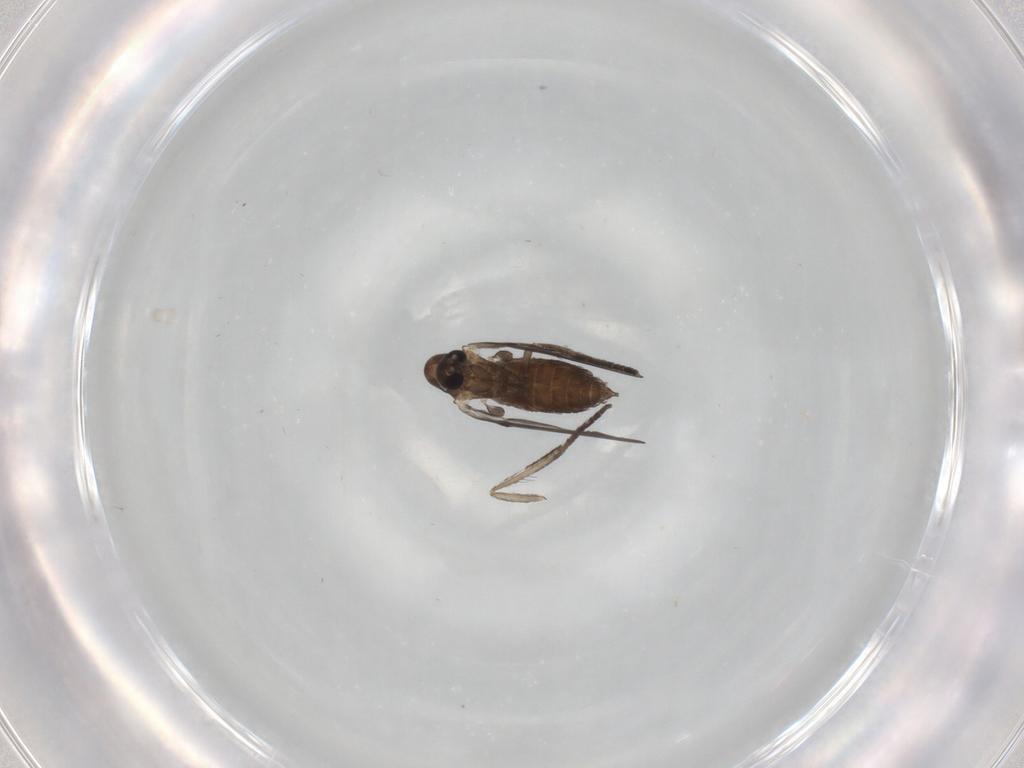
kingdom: Animalia
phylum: Arthropoda
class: Insecta
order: Diptera
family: Psychodidae
